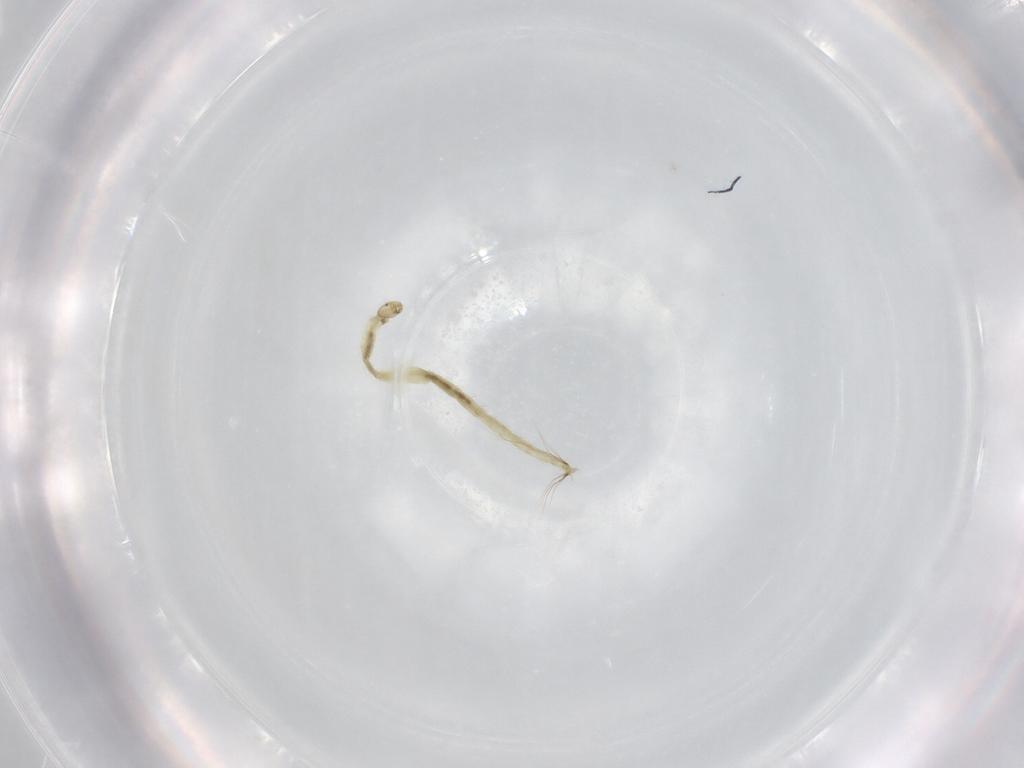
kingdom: Animalia
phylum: Arthropoda
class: Insecta
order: Diptera
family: Chironomidae
